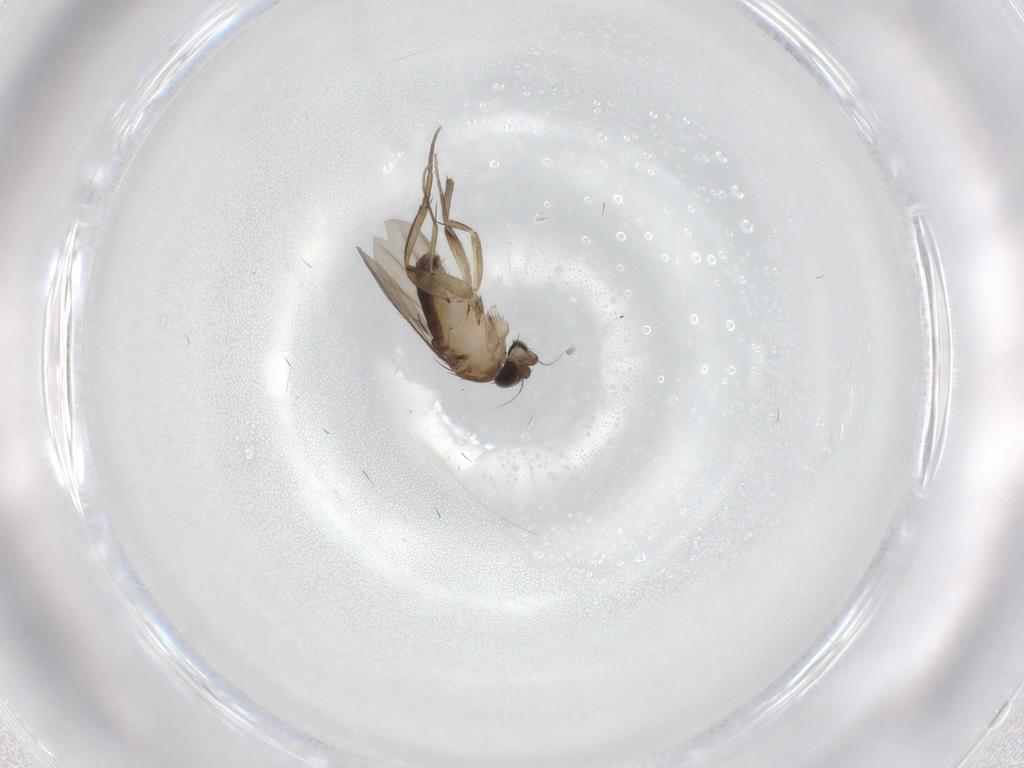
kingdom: Animalia
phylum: Arthropoda
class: Insecta
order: Diptera
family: Phoridae
